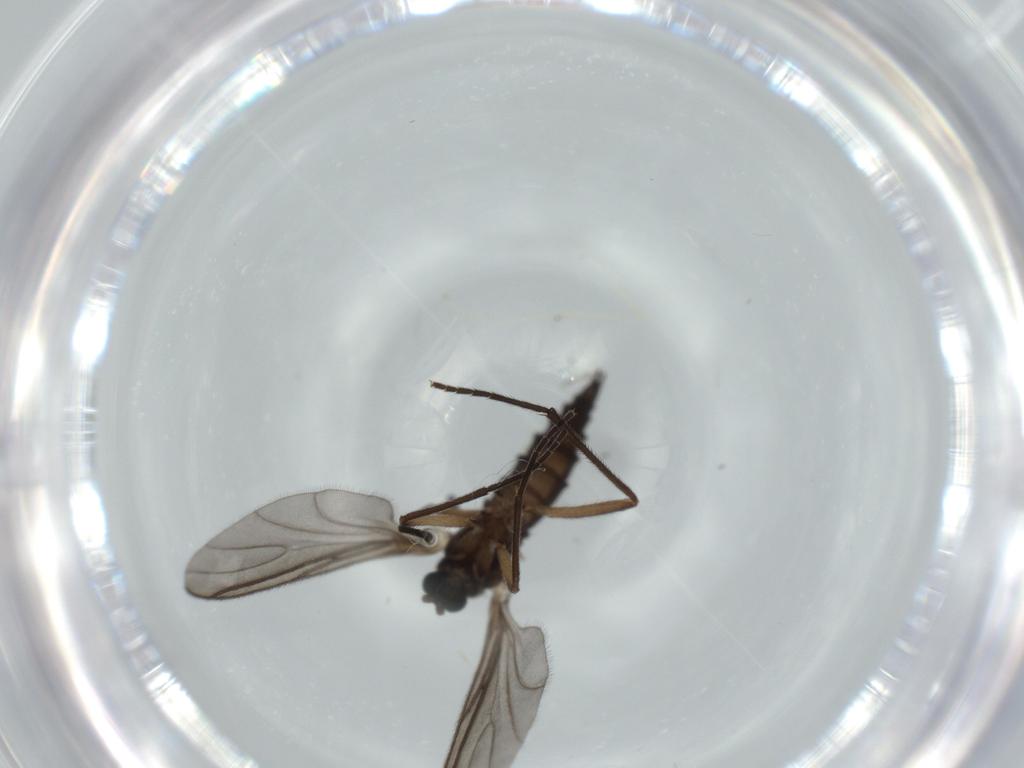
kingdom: Animalia
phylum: Arthropoda
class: Insecta
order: Diptera
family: Cecidomyiidae
